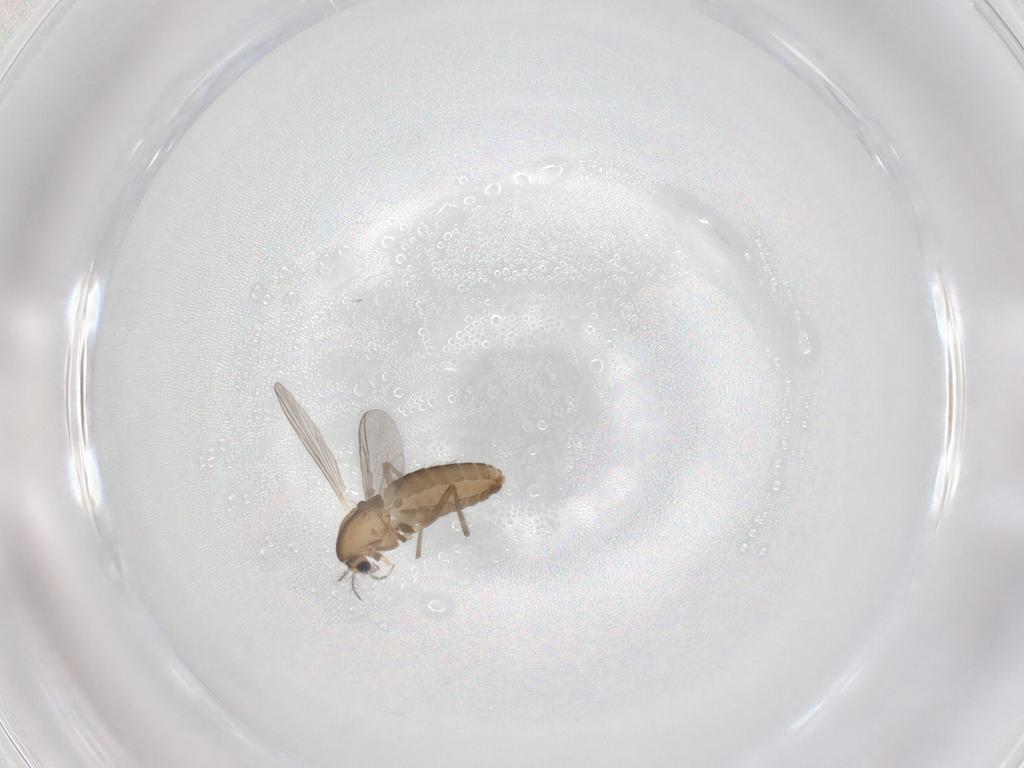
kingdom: Animalia
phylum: Arthropoda
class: Insecta
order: Diptera
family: Chironomidae
